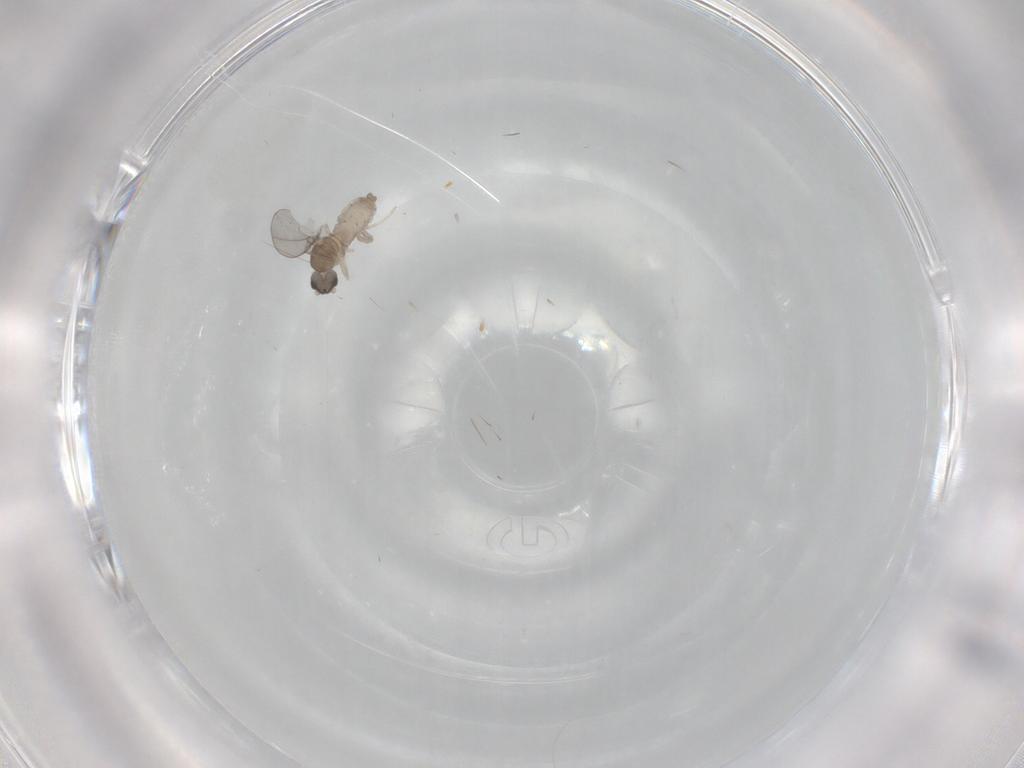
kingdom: Animalia
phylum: Arthropoda
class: Insecta
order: Diptera
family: Cecidomyiidae
